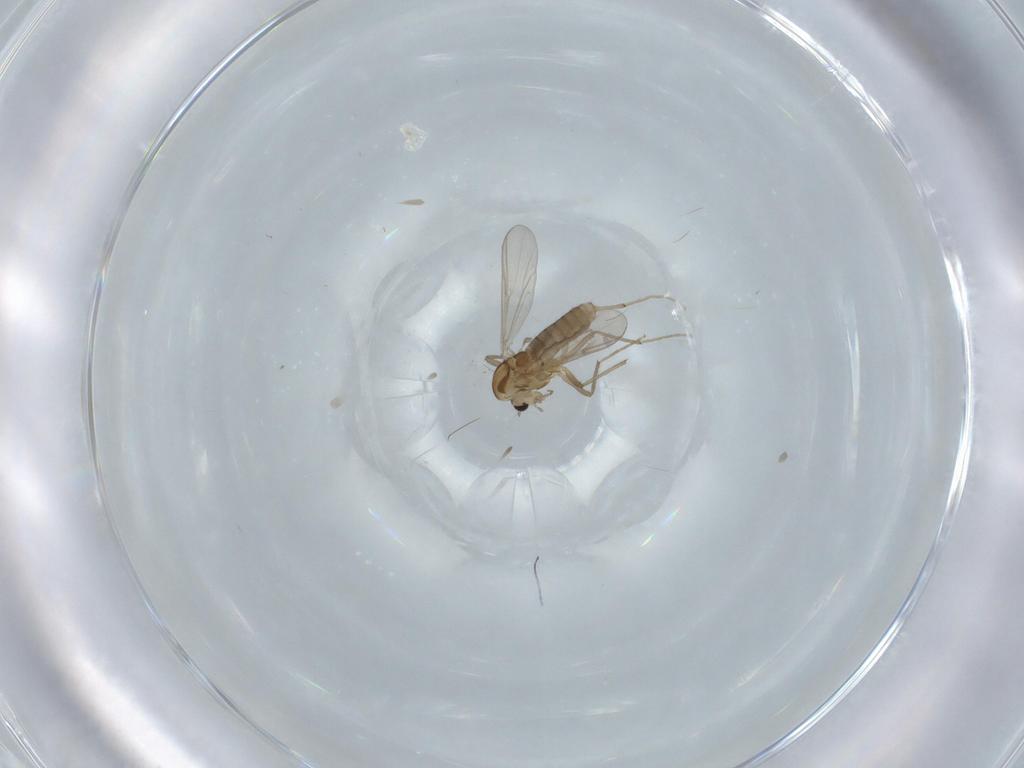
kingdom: Animalia
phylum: Arthropoda
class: Insecta
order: Diptera
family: Chironomidae
